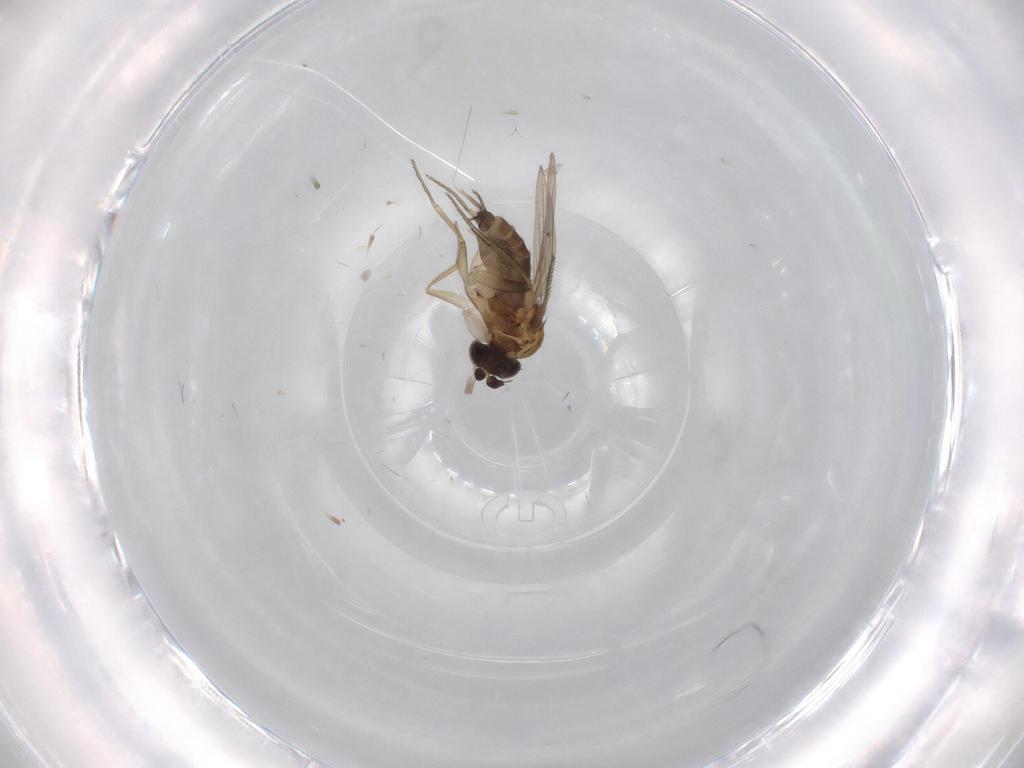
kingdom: Animalia
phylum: Arthropoda
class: Insecta
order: Diptera
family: Phoridae
